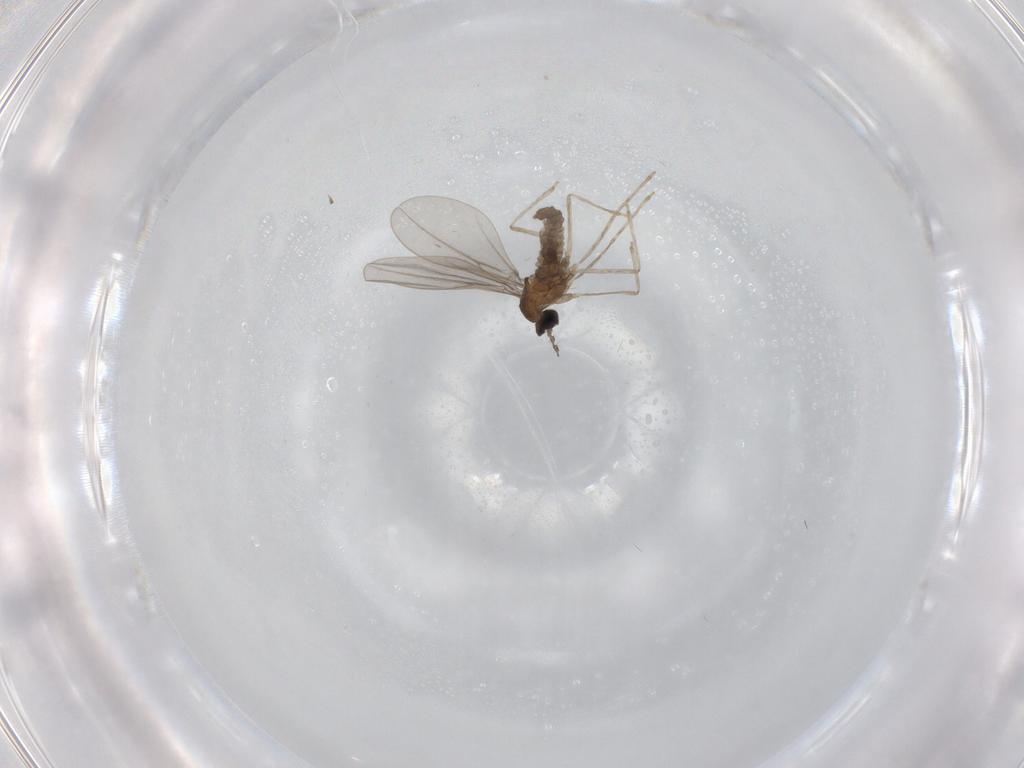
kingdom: Animalia
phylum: Arthropoda
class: Insecta
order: Diptera
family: Cecidomyiidae
